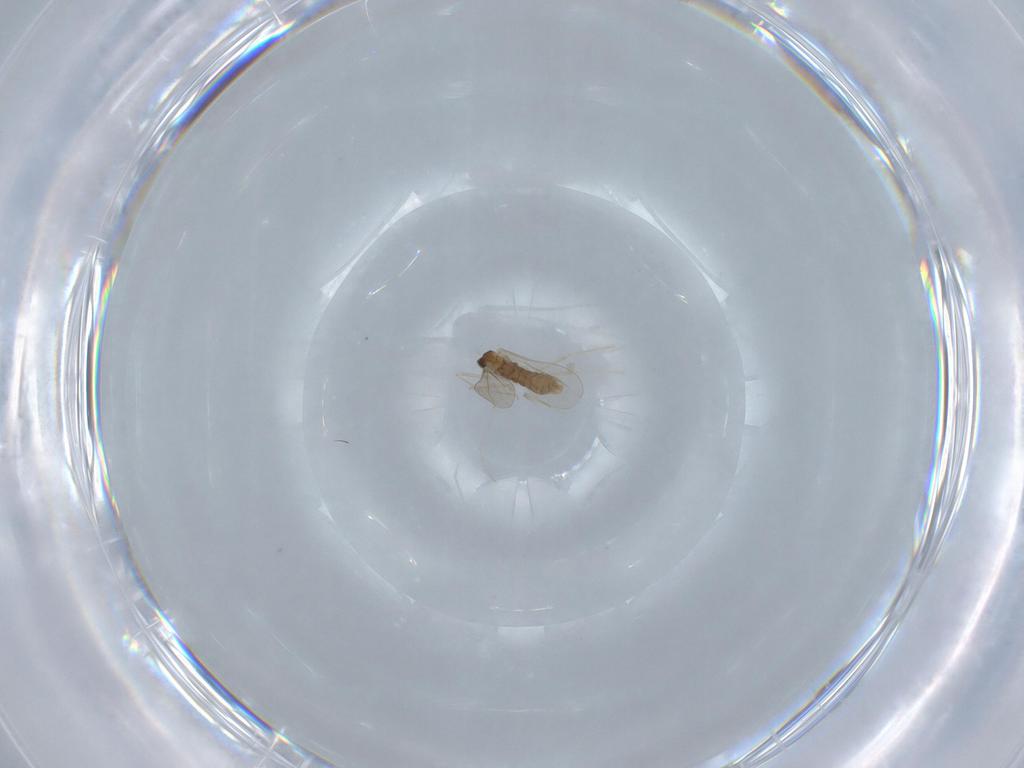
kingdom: Animalia
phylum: Arthropoda
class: Insecta
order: Diptera
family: Cecidomyiidae
